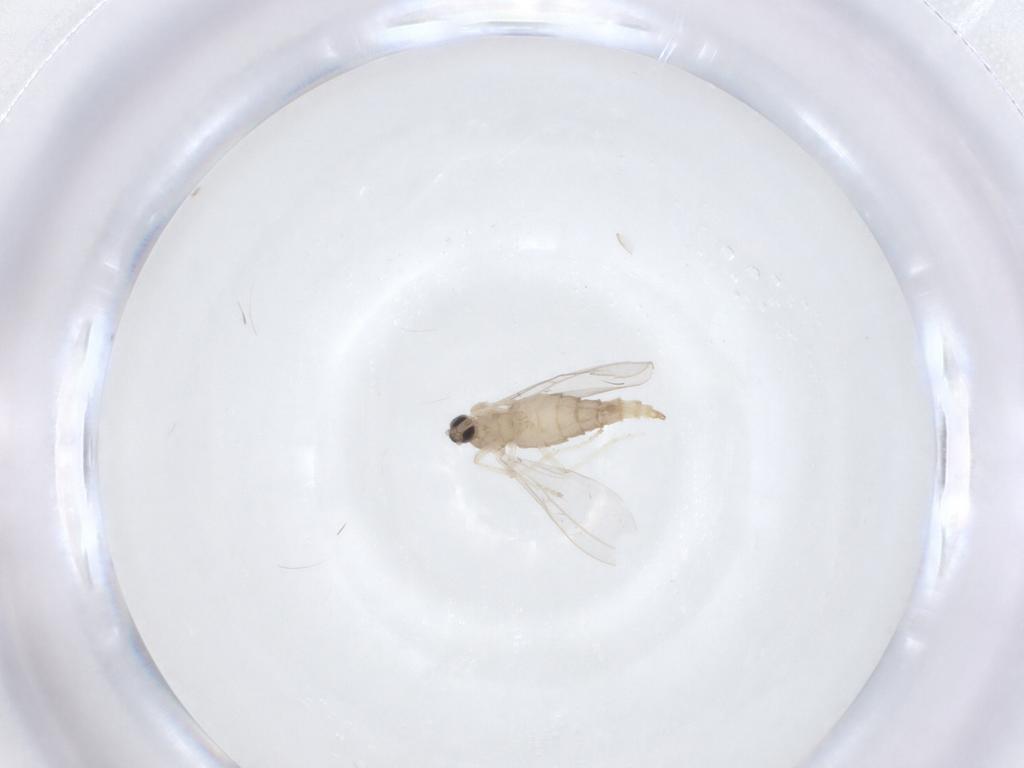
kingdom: Animalia
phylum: Arthropoda
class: Insecta
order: Diptera
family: Cecidomyiidae
